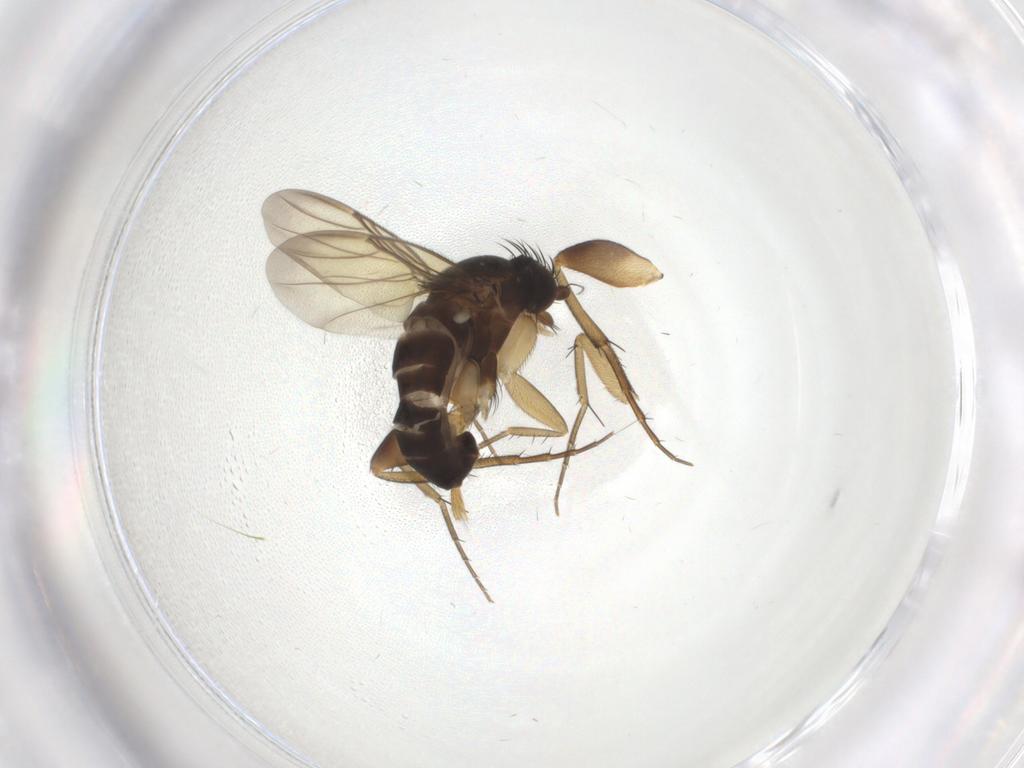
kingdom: Animalia
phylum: Arthropoda
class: Insecta
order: Diptera
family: Phoridae
